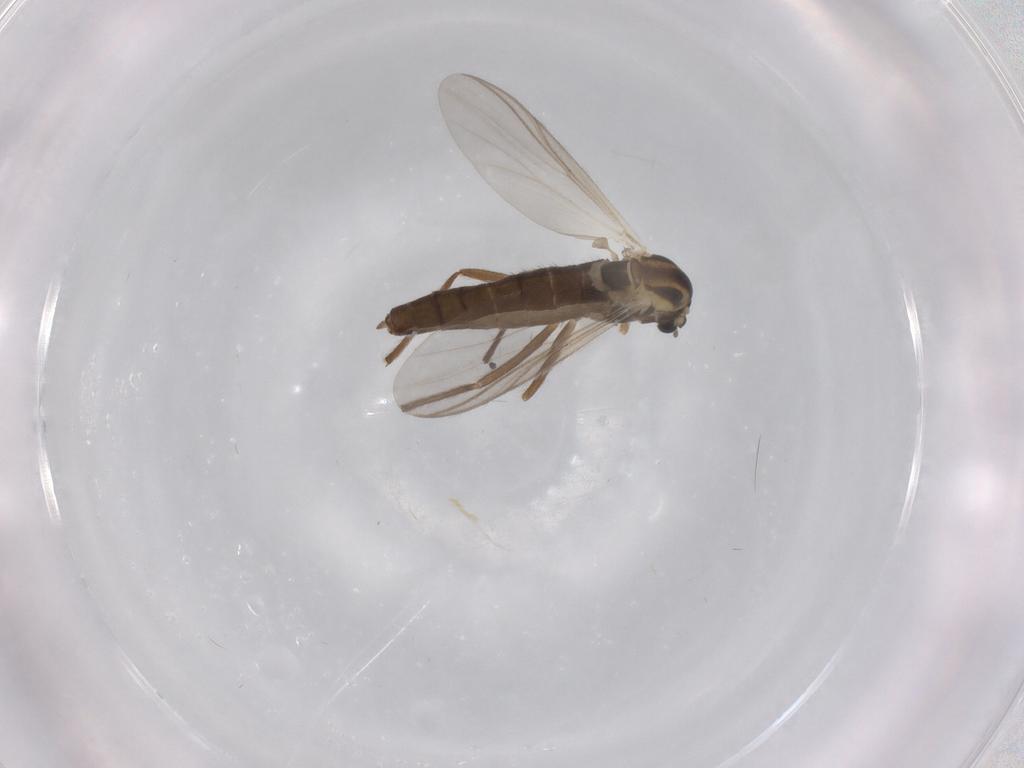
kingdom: Animalia
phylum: Arthropoda
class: Insecta
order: Diptera
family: Chironomidae
